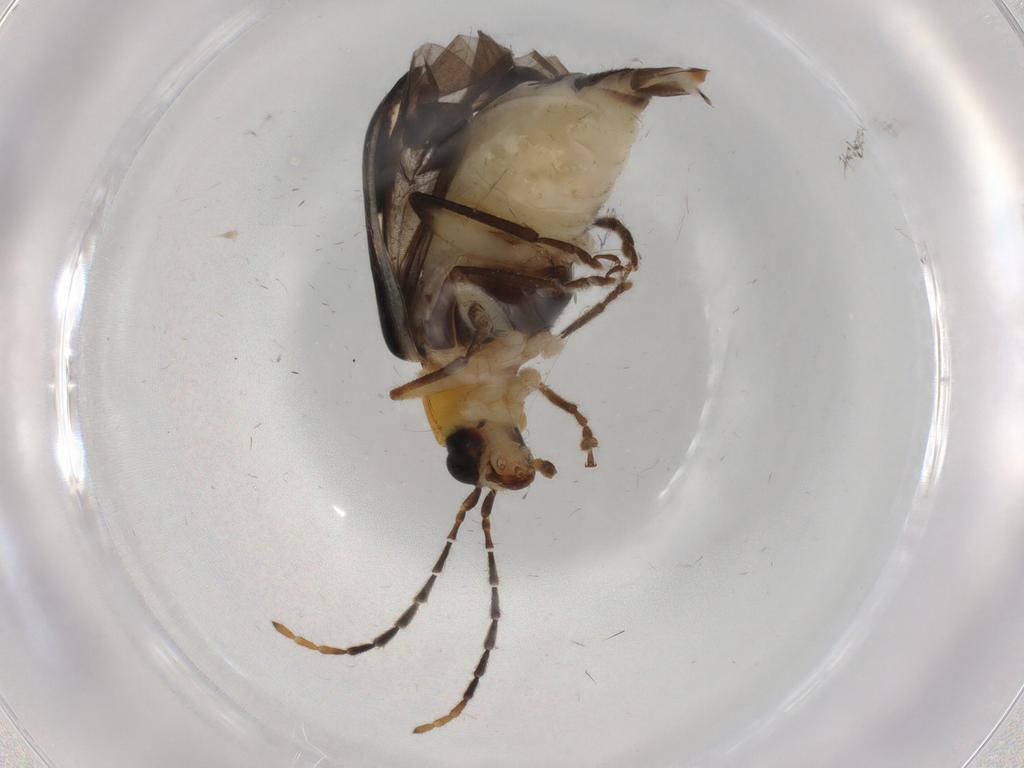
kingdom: Animalia
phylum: Arthropoda
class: Insecta
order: Coleoptera
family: Chrysomelidae
